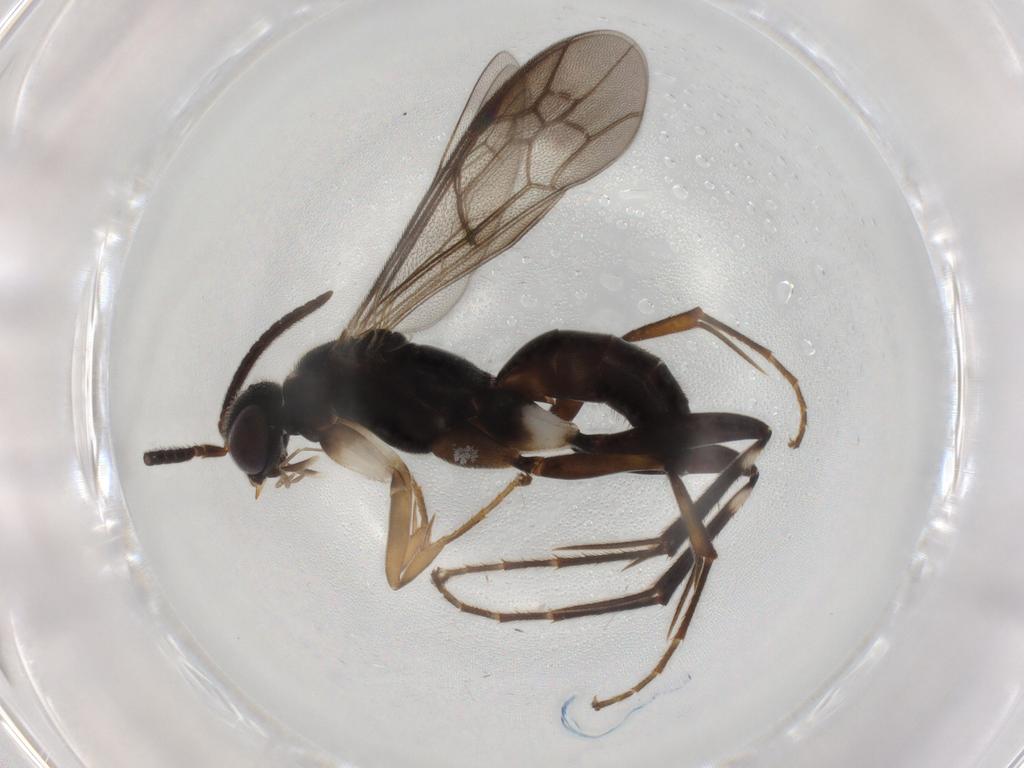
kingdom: Animalia
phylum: Arthropoda
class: Insecta
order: Hymenoptera
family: Pompilidae
